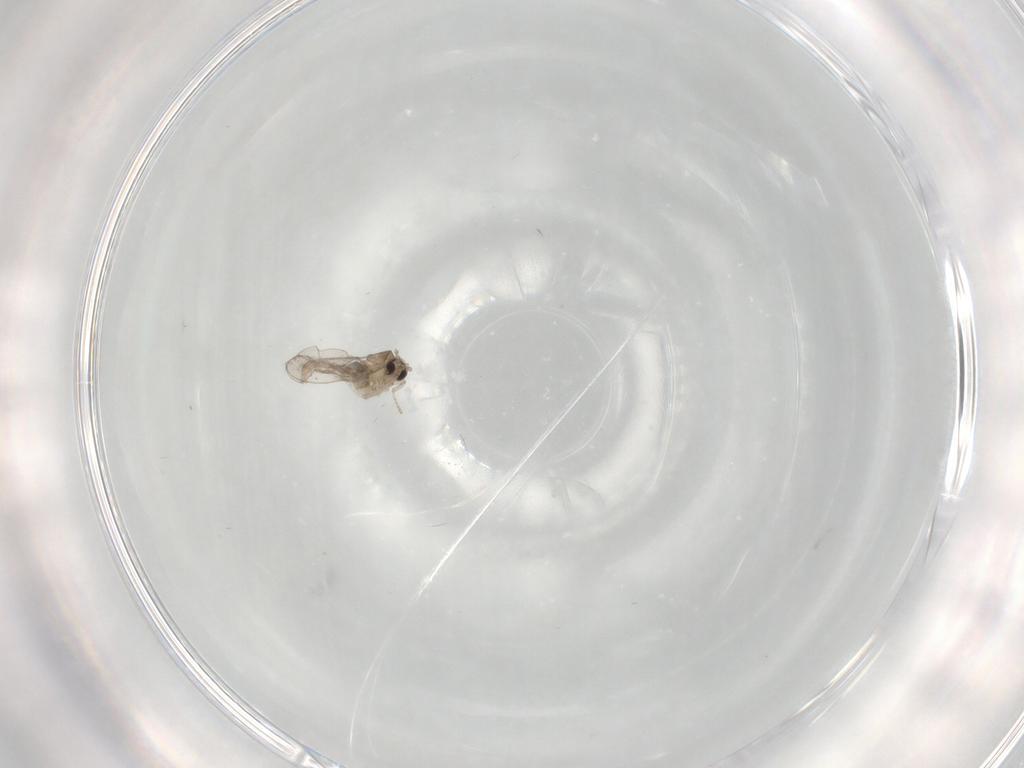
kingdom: Animalia
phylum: Arthropoda
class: Insecta
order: Diptera
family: Cecidomyiidae
